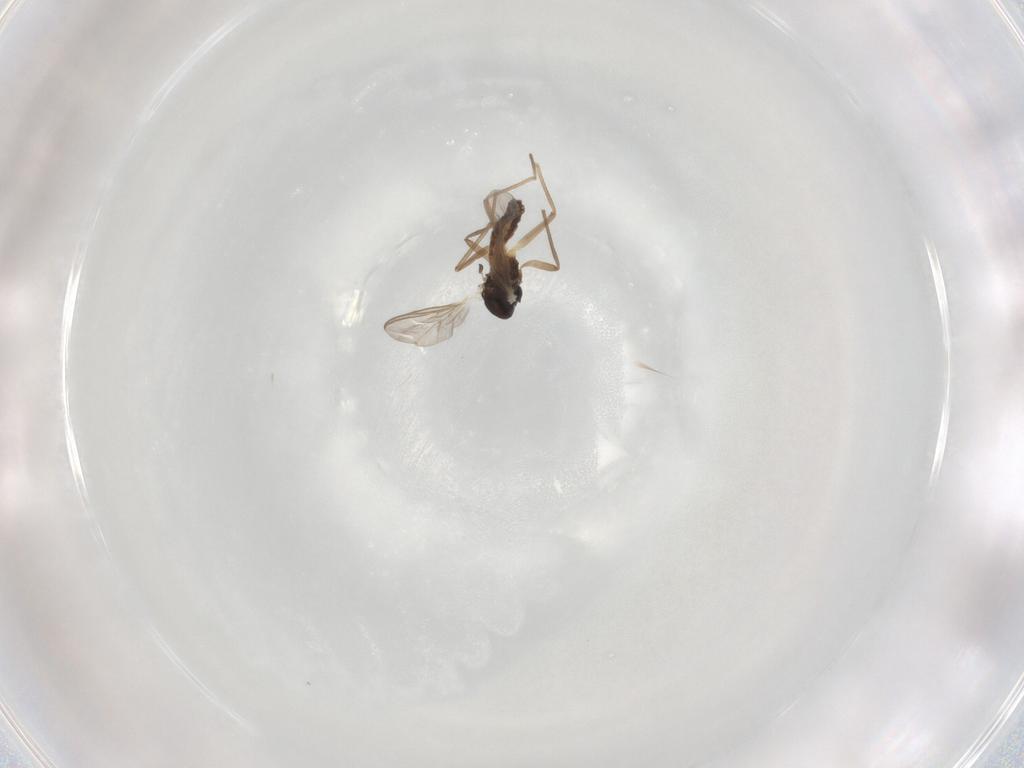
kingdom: Animalia
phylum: Arthropoda
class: Insecta
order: Diptera
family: Chironomidae
